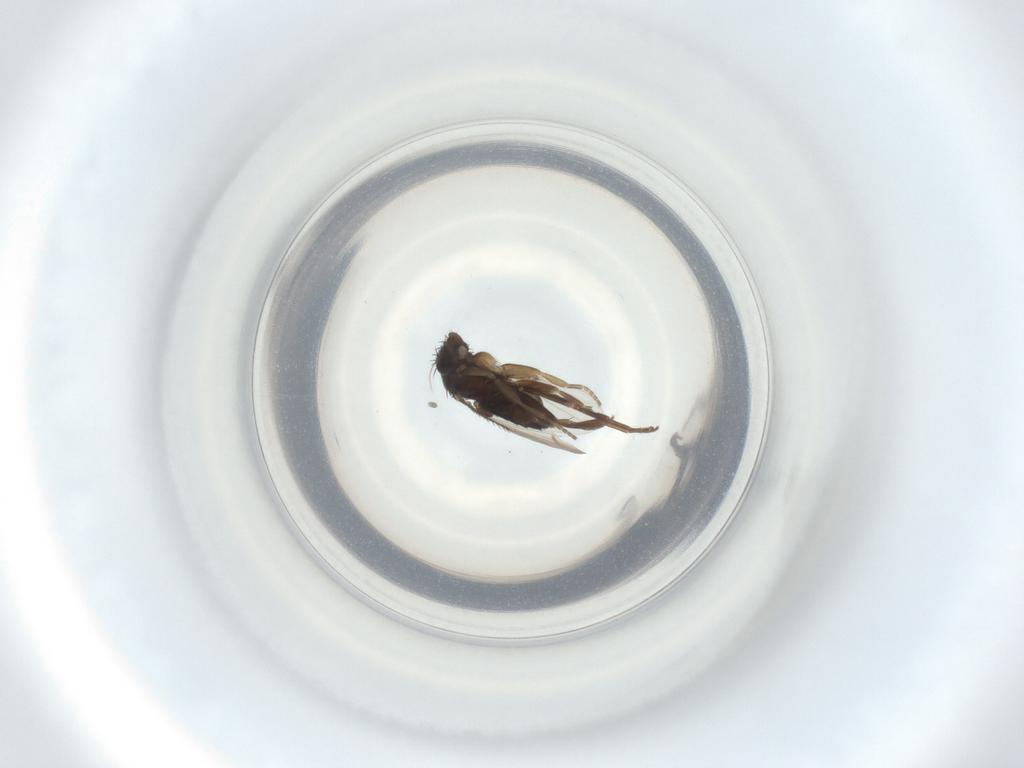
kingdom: Animalia
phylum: Arthropoda
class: Insecta
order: Diptera
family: Phoridae
